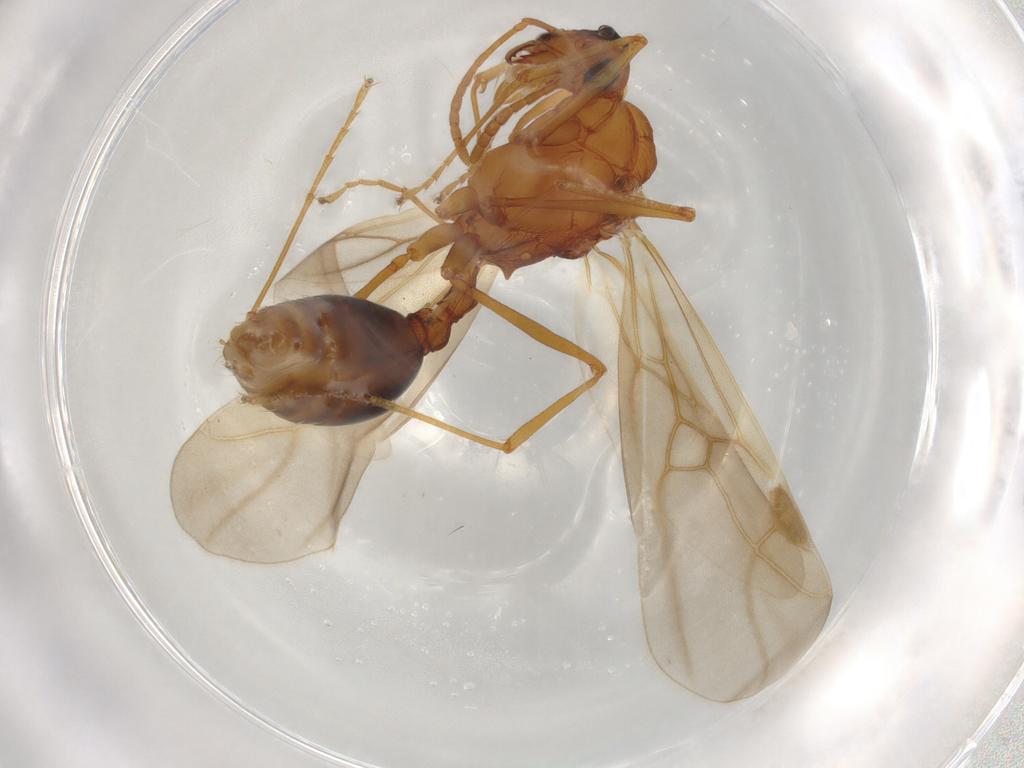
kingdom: Animalia
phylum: Arthropoda
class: Insecta
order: Hymenoptera
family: Formicidae
